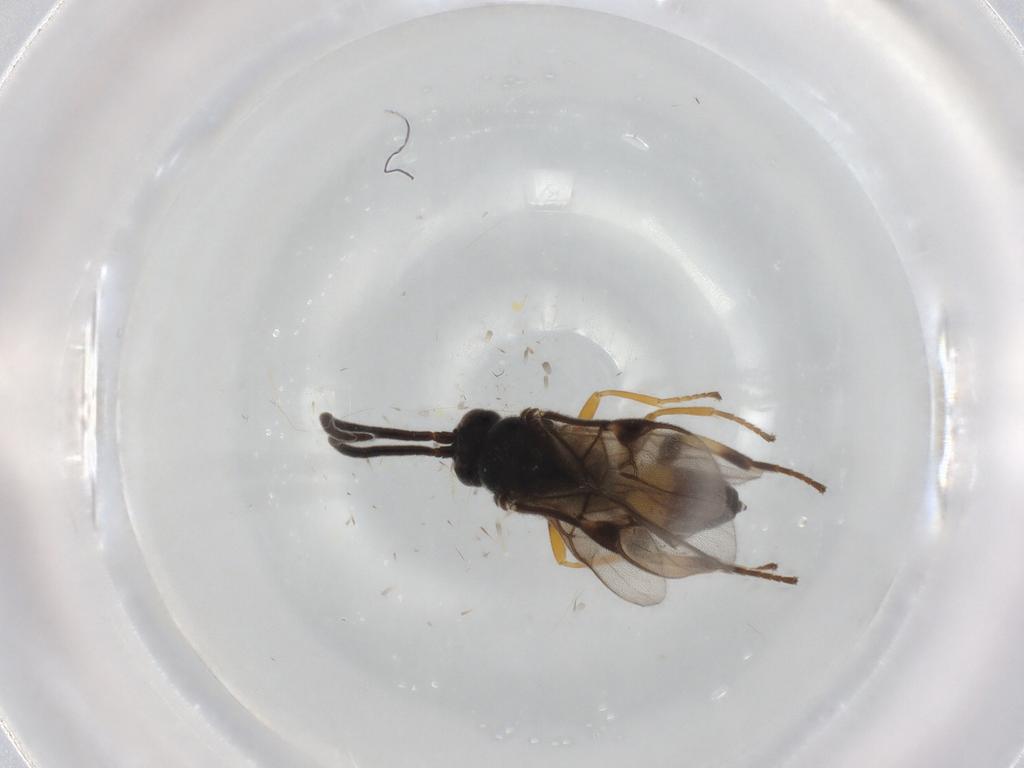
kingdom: Animalia
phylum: Arthropoda
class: Insecta
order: Hymenoptera
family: Braconidae
